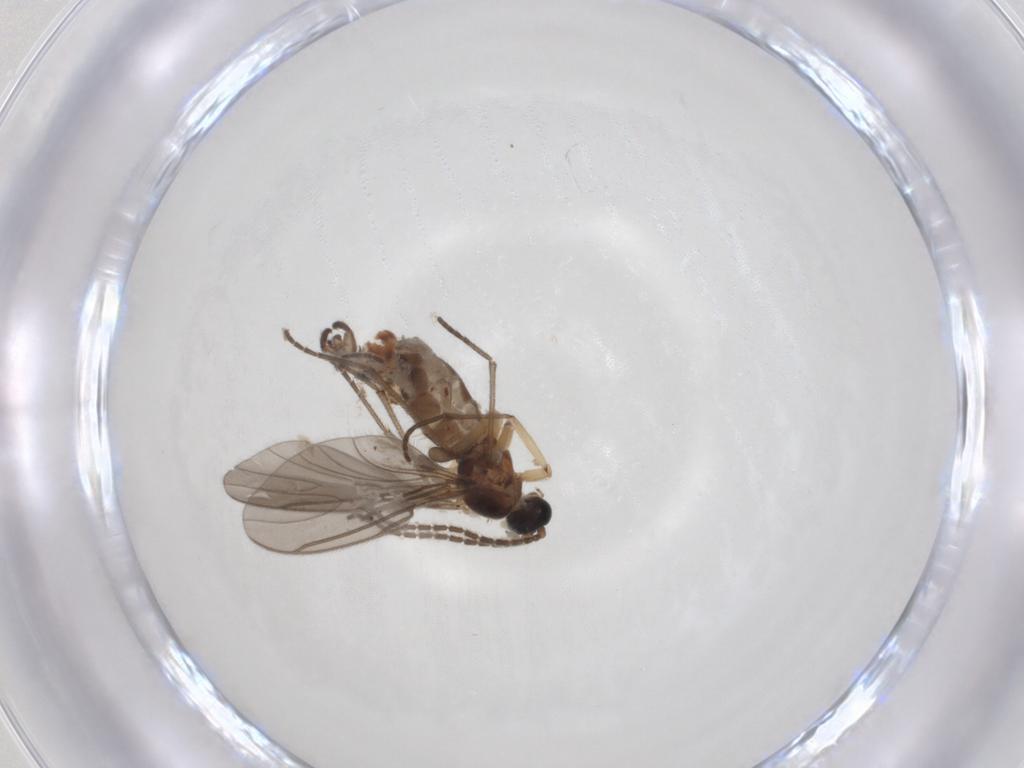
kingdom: Animalia
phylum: Arthropoda
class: Insecta
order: Diptera
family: Sciaridae
